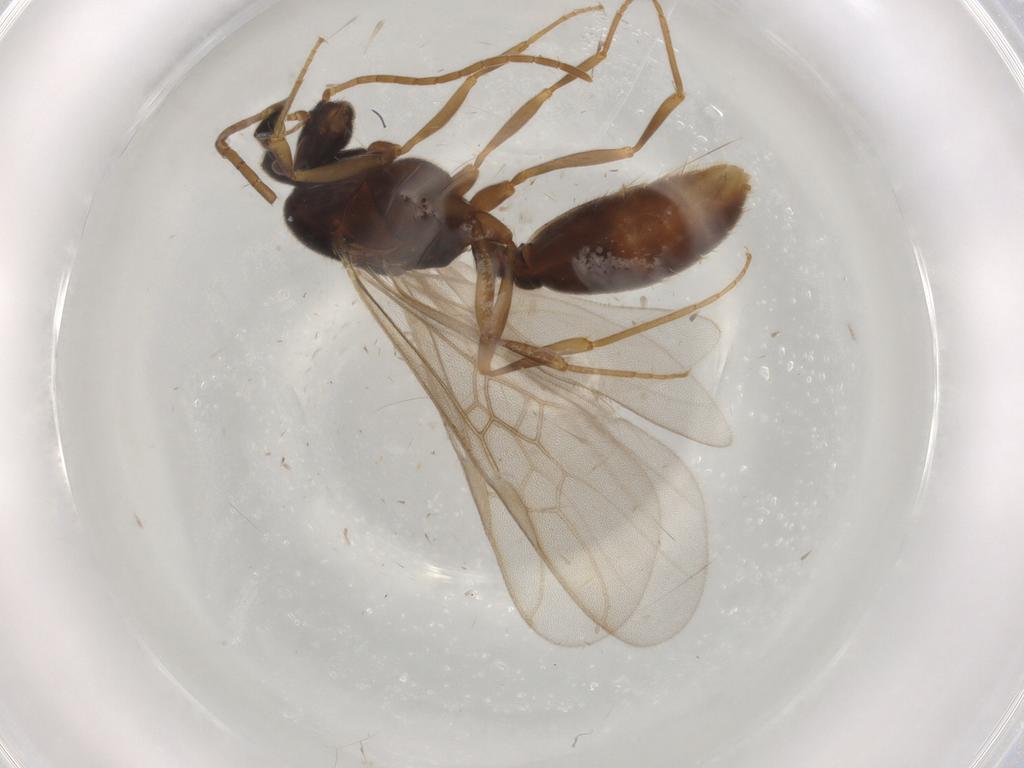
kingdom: Animalia
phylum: Arthropoda
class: Insecta
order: Hymenoptera
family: Formicidae
